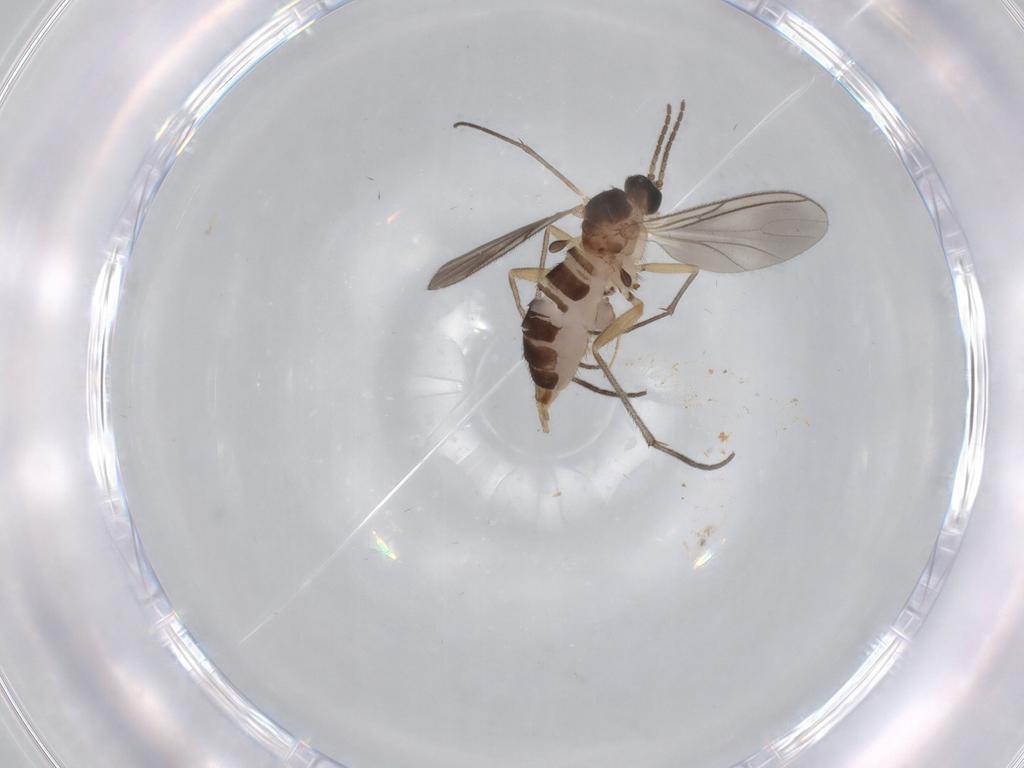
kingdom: Animalia
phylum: Arthropoda
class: Insecta
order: Diptera
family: Sciaridae
